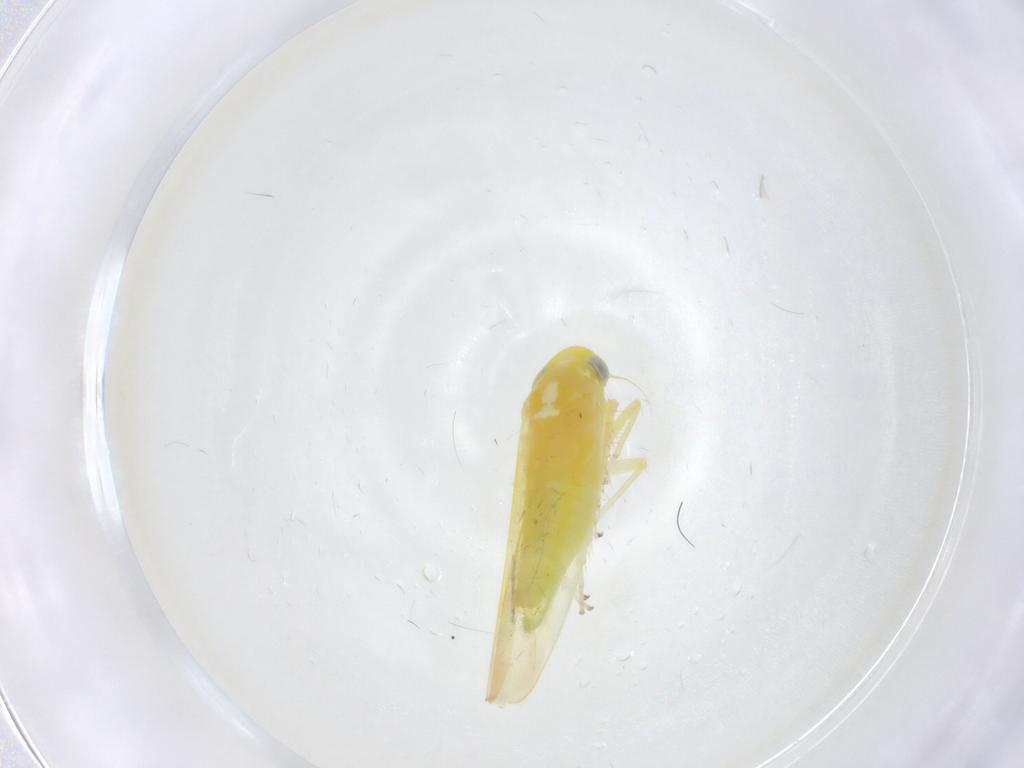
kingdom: Animalia
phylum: Arthropoda
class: Insecta
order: Hemiptera
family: Cicadellidae
